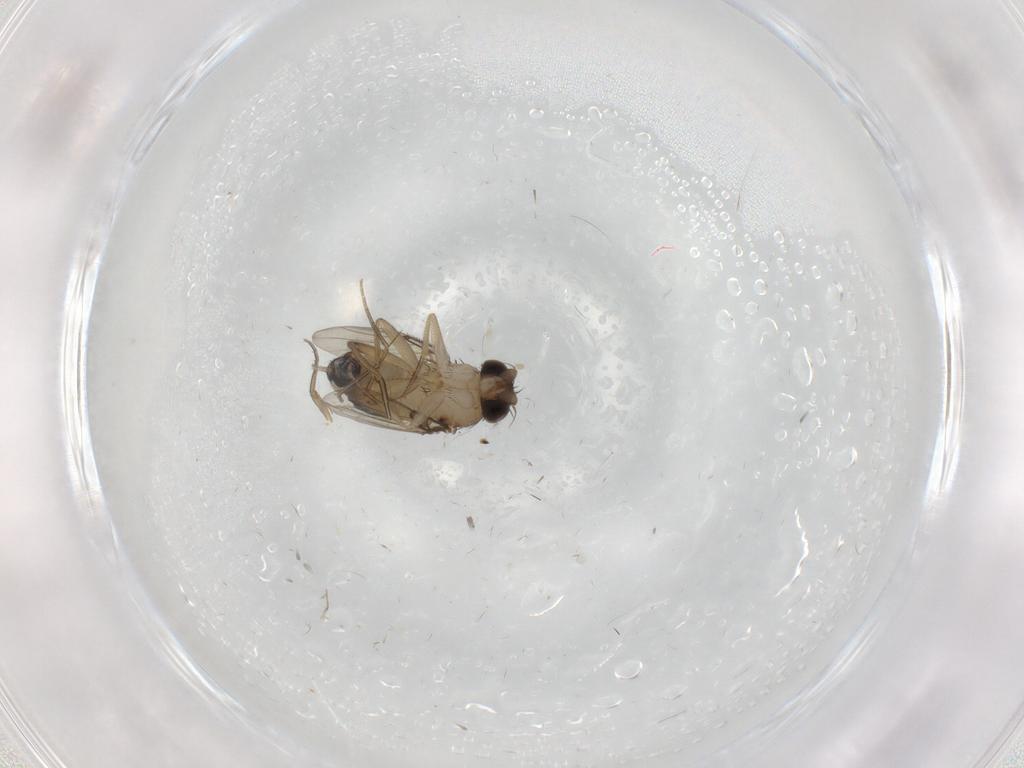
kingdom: Animalia
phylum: Arthropoda
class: Insecta
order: Diptera
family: Phoridae
